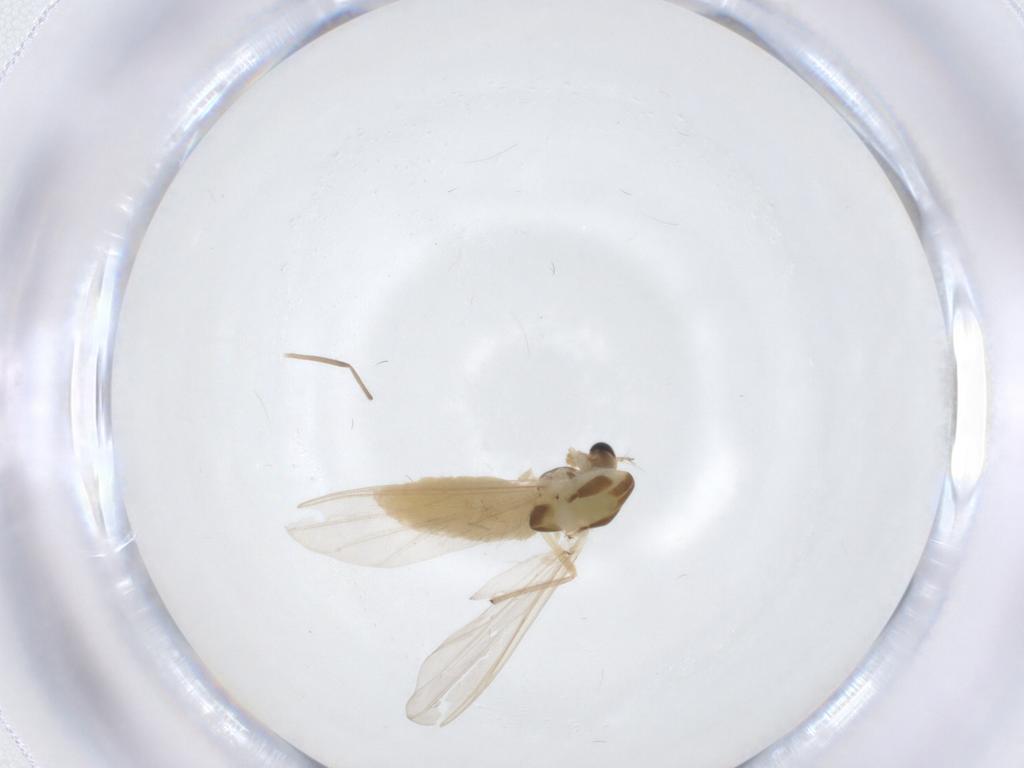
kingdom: Animalia
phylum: Arthropoda
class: Insecta
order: Diptera
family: Chironomidae
